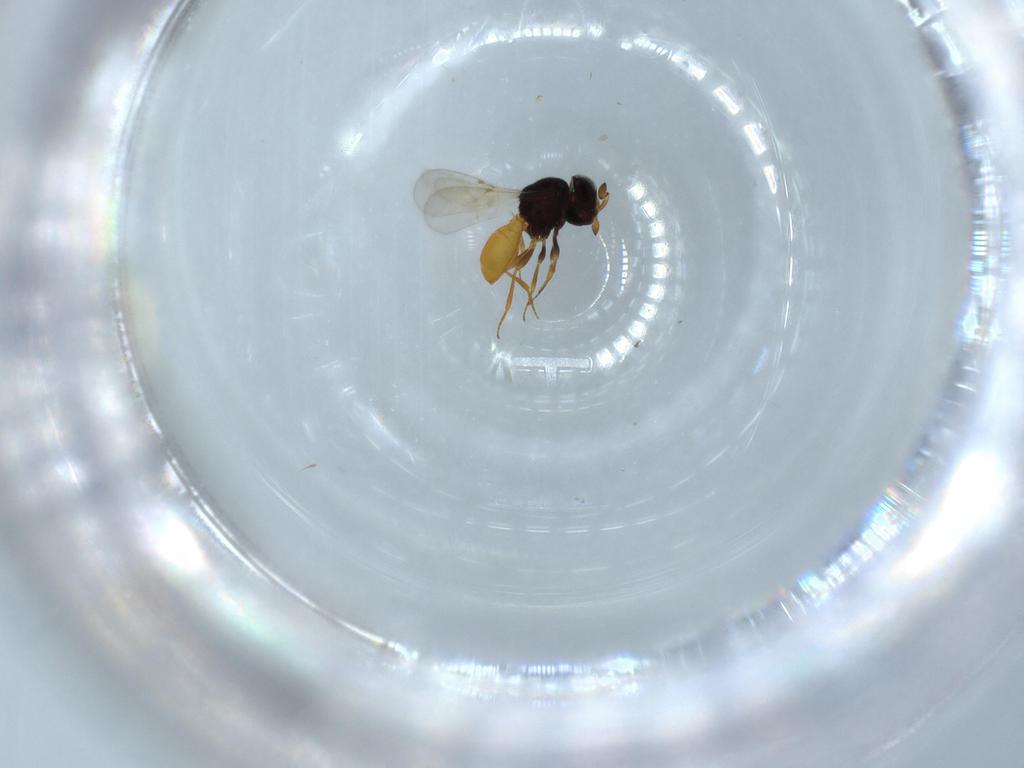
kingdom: Animalia
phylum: Arthropoda
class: Insecta
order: Hymenoptera
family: Scelionidae
